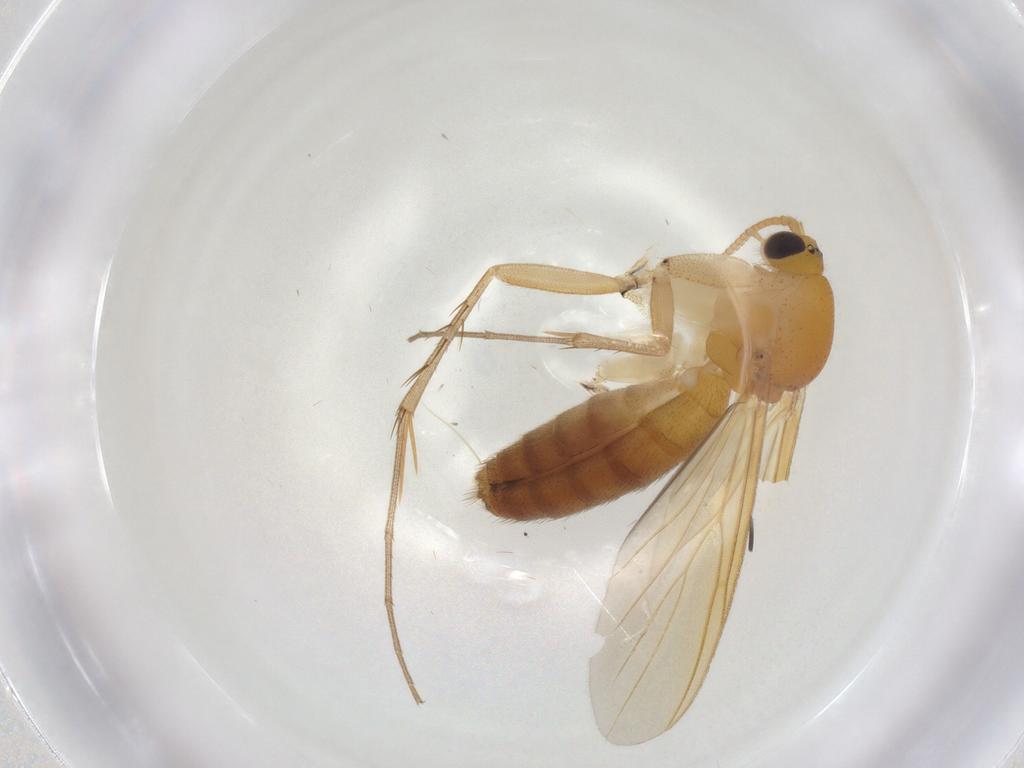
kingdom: Animalia
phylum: Arthropoda
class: Insecta
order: Diptera
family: Mycetophilidae
